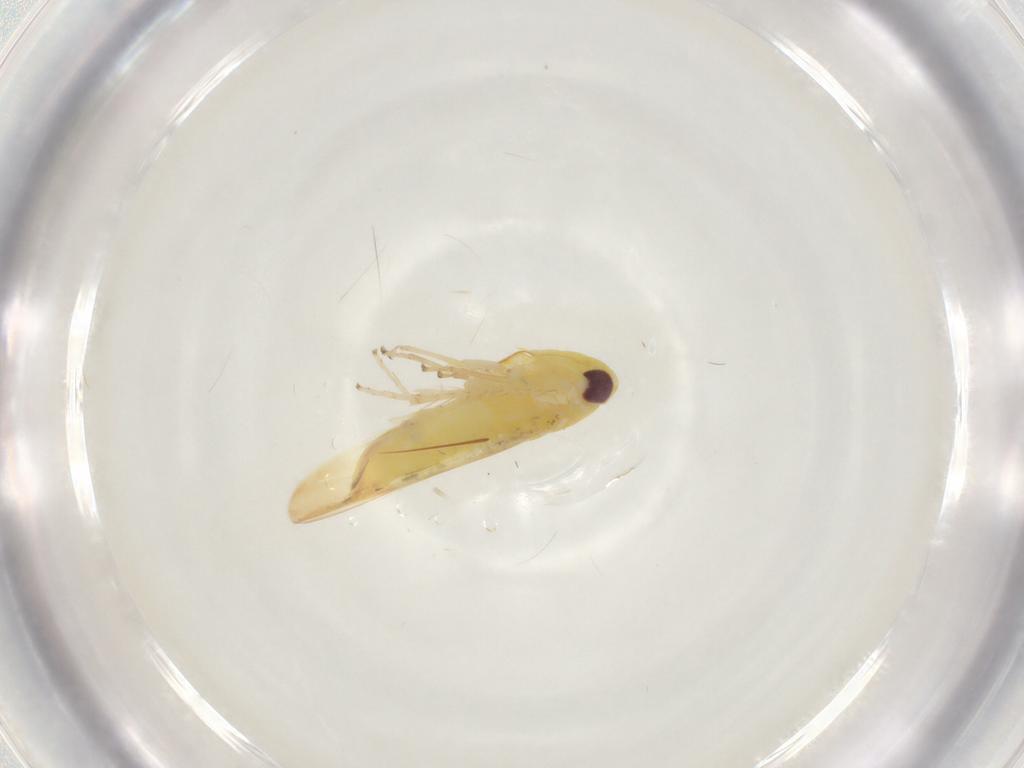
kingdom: Animalia
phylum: Arthropoda
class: Insecta
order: Hemiptera
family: Cicadellidae
